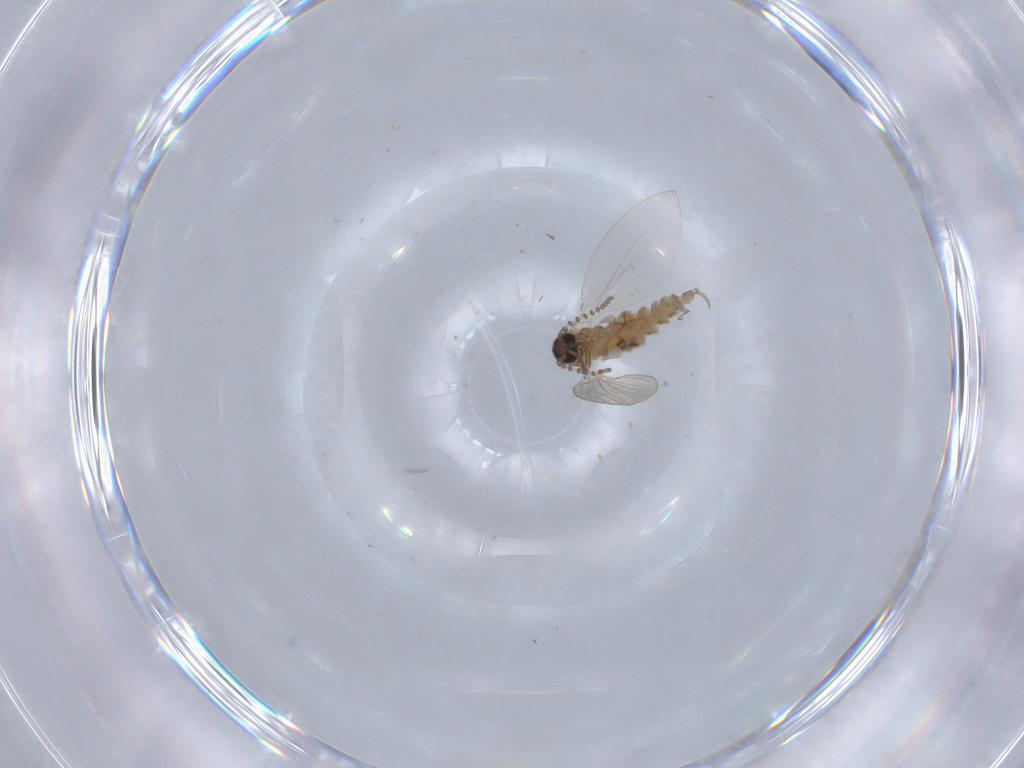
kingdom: Animalia
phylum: Arthropoda
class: Insecta
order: Diptera
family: Psychodidae
